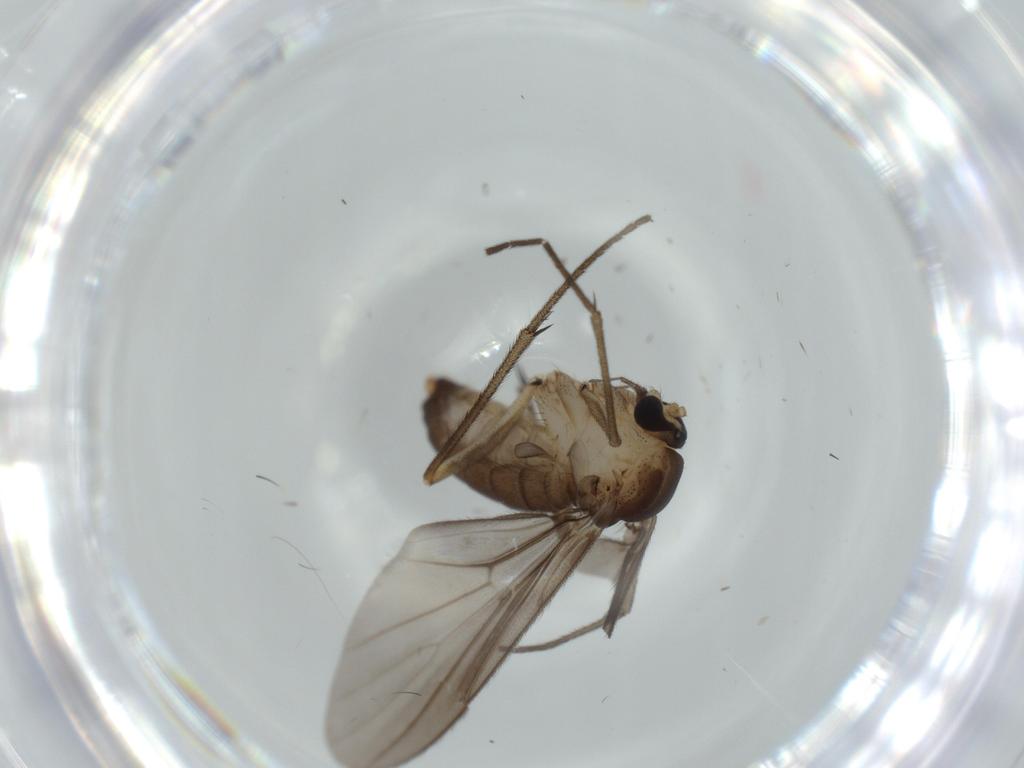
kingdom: Animalia
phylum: Arthropoda
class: Insecta
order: Diptera
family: Diadocidiidae
